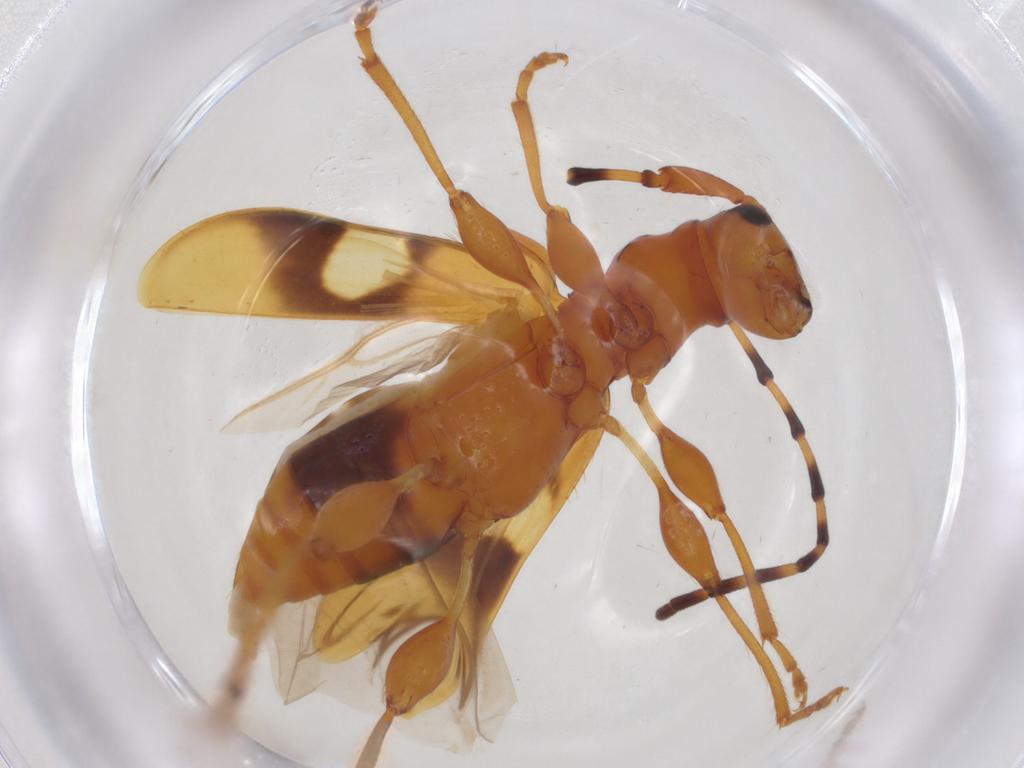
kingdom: Animalia
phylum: Arthropoda
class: Insecta
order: Coleoptera
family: Cerambycidae
